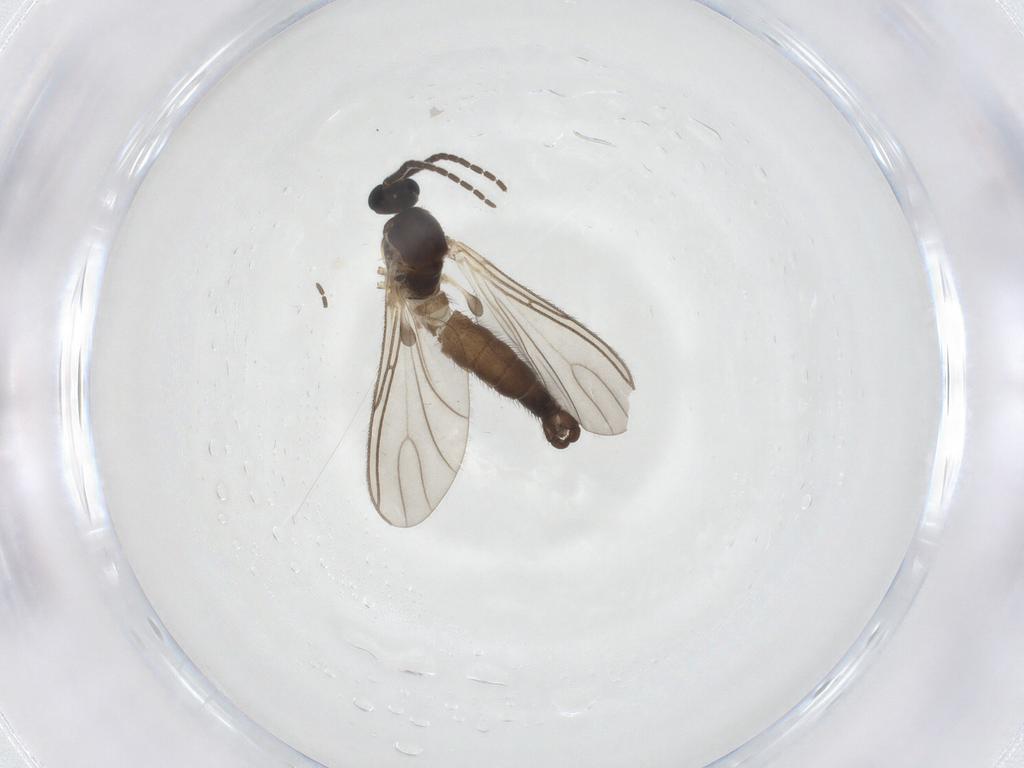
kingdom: Animalia
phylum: Arthropoda
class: Insecta
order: Diptera
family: Sciaridae
